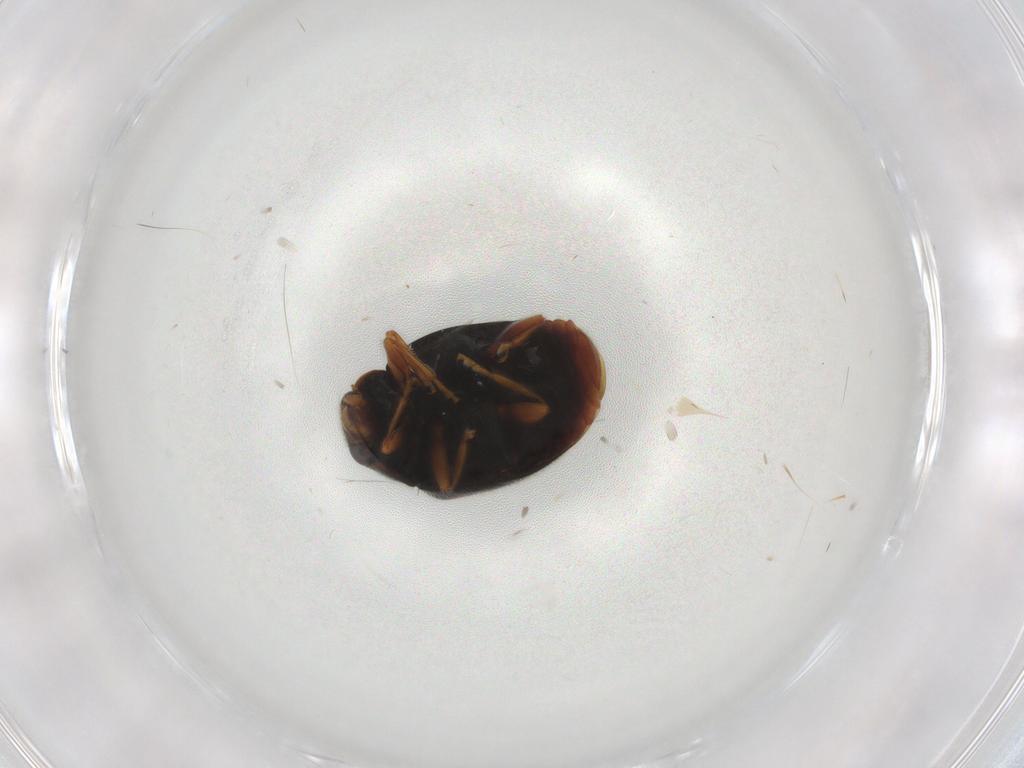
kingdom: Animalia
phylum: Arthropoda
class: Insecta
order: Coleoptera
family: Coccinellidae
